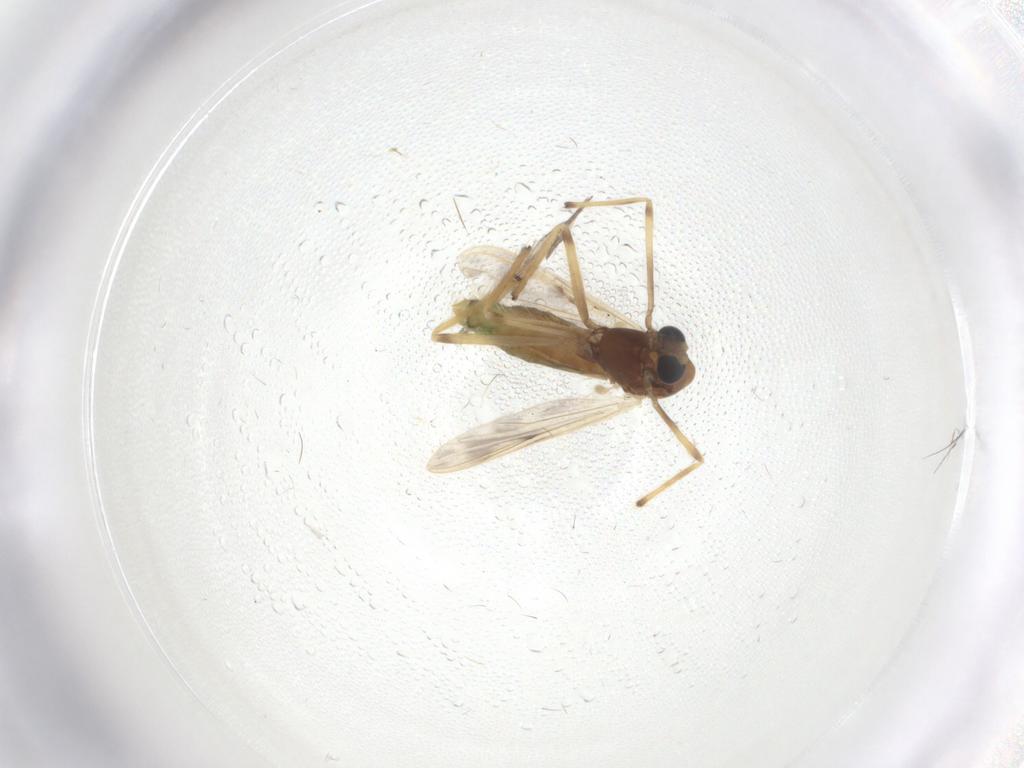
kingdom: Animalia
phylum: Arthropoda
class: Insecta
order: Diptera
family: Chironomidae
